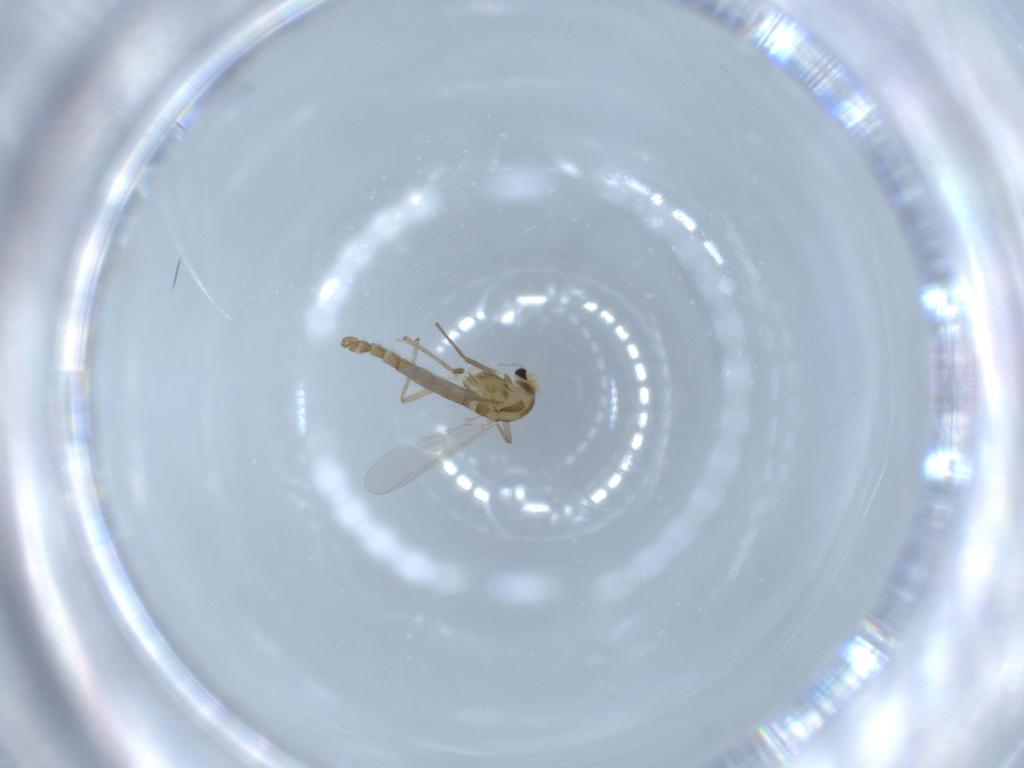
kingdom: Animalia
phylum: Arthropoda
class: Insecta
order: Diptera
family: Chironomidae
